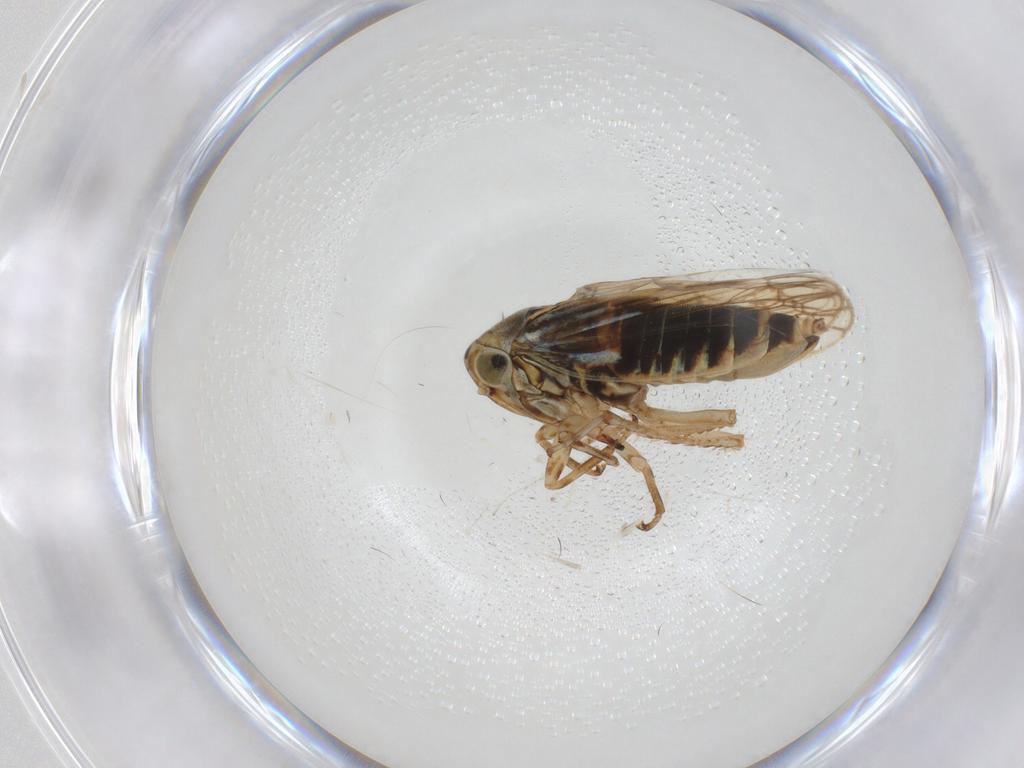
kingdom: Animalia
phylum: Arthropoda
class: Insecta
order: Hemiptera
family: Cicadellidae
